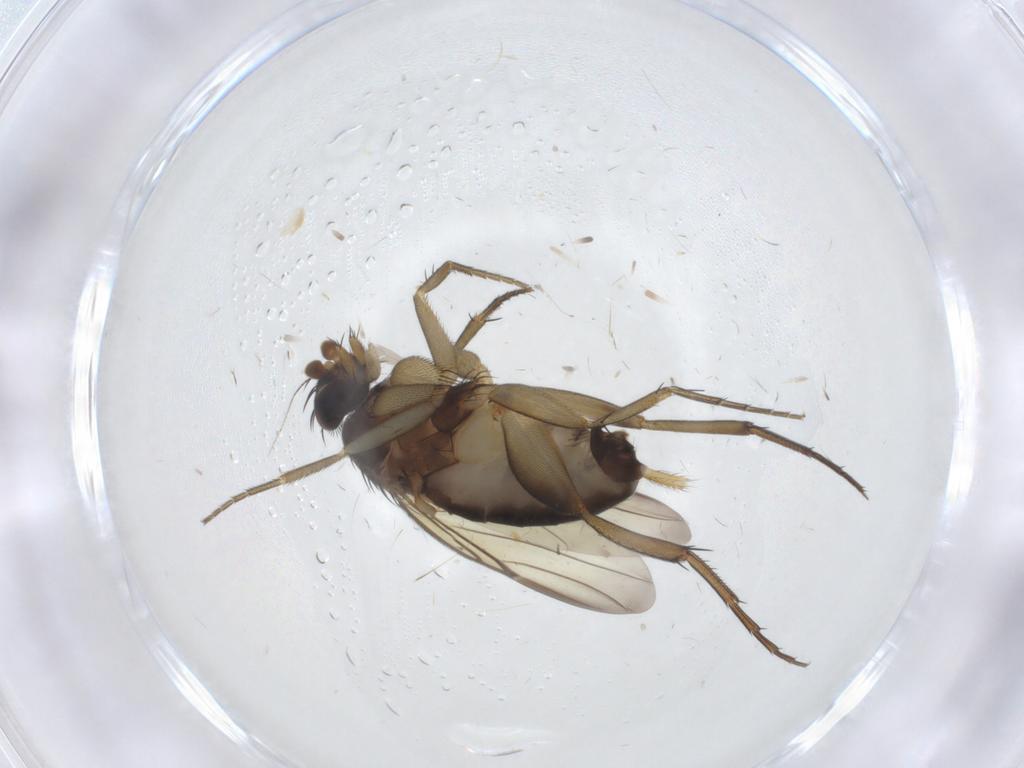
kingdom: Animalia
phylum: Arthropoda
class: Insecta
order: Diptera
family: Phoridae
